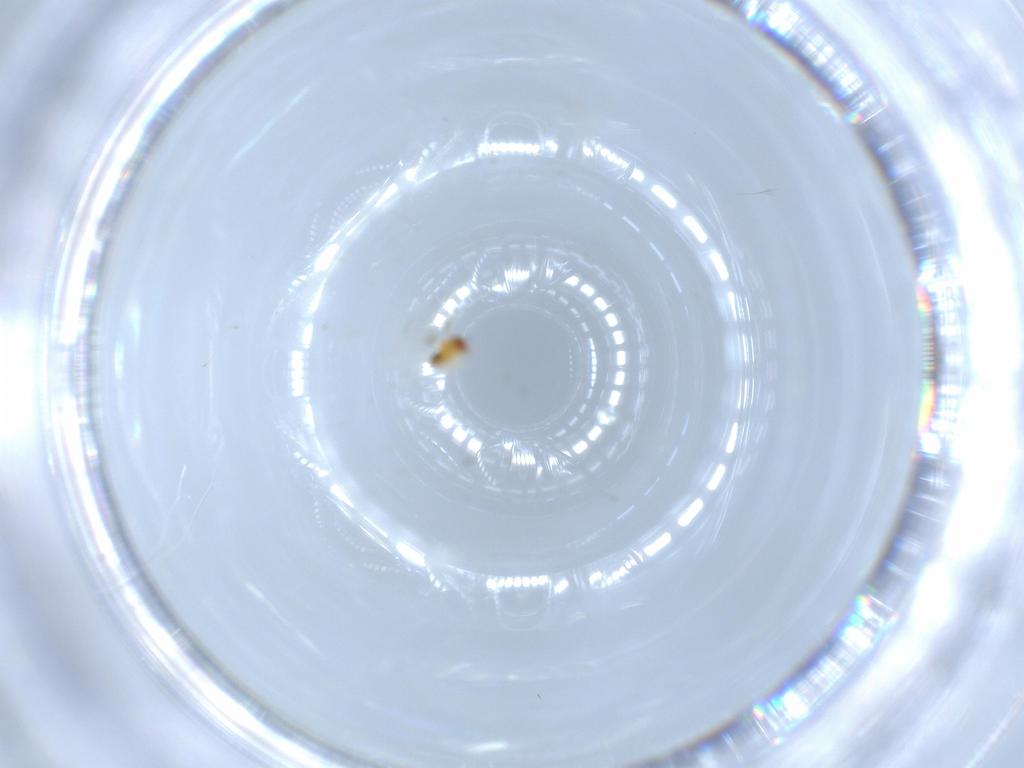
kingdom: Animalia
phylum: Arthropoda
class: Insecta
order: Hymenoptera
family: Trichogrammatidae
